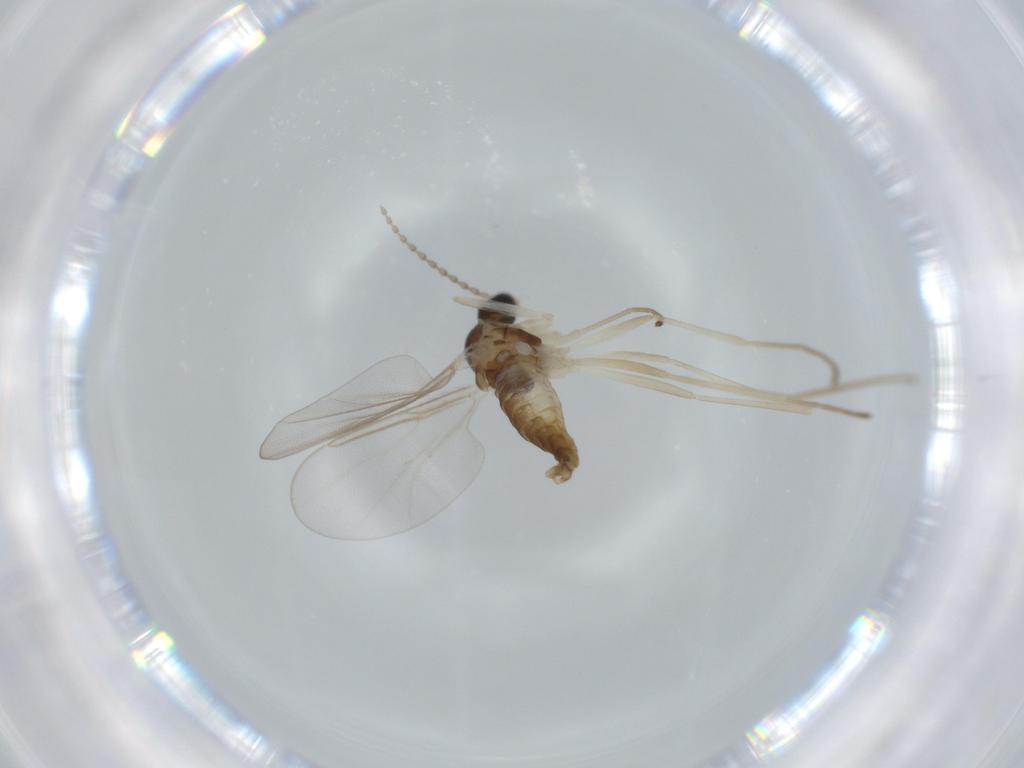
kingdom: Animalia
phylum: Arthropoda
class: Insecta
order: Diptera
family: Cecidomyiidae
